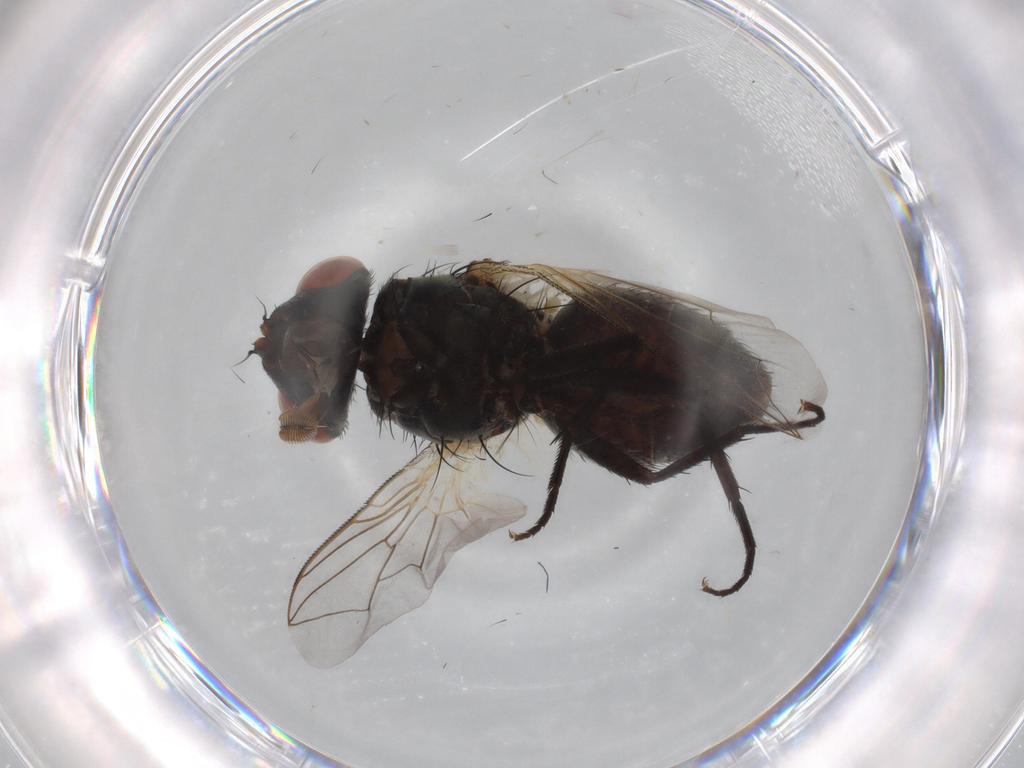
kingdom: Animalia
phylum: Arthropoda
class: Insecta
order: Diptera
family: Sarcophagidae
